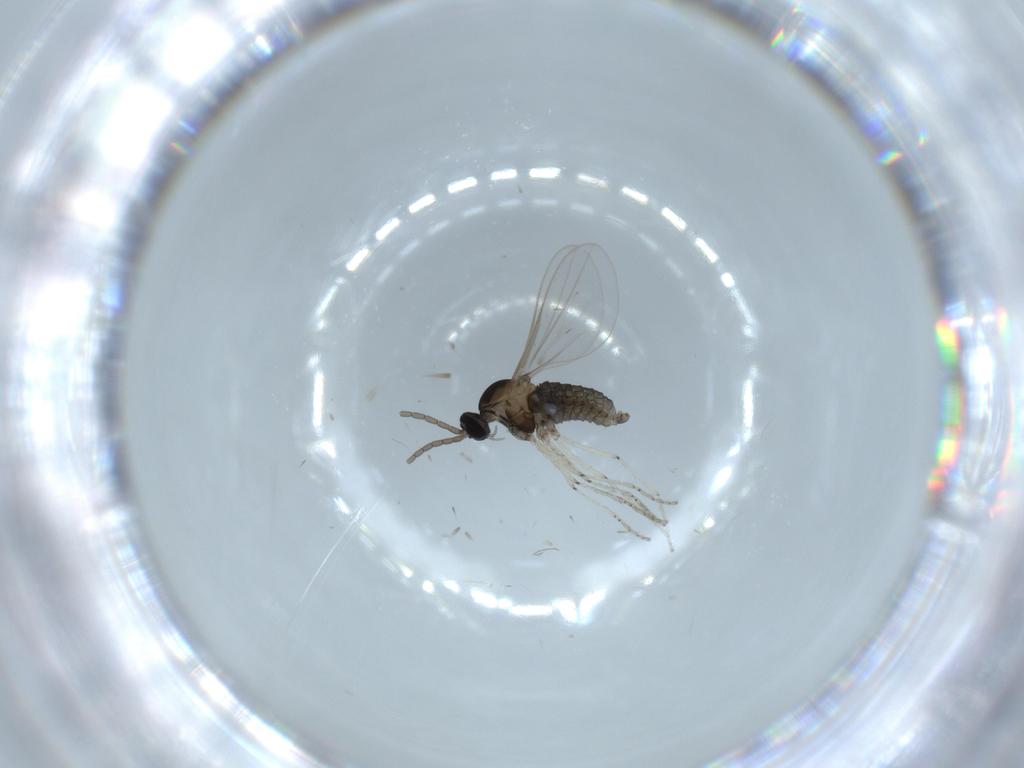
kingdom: Animalia
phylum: Arthropoda
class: Insecta
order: Diptera
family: Cecidomyiidae
